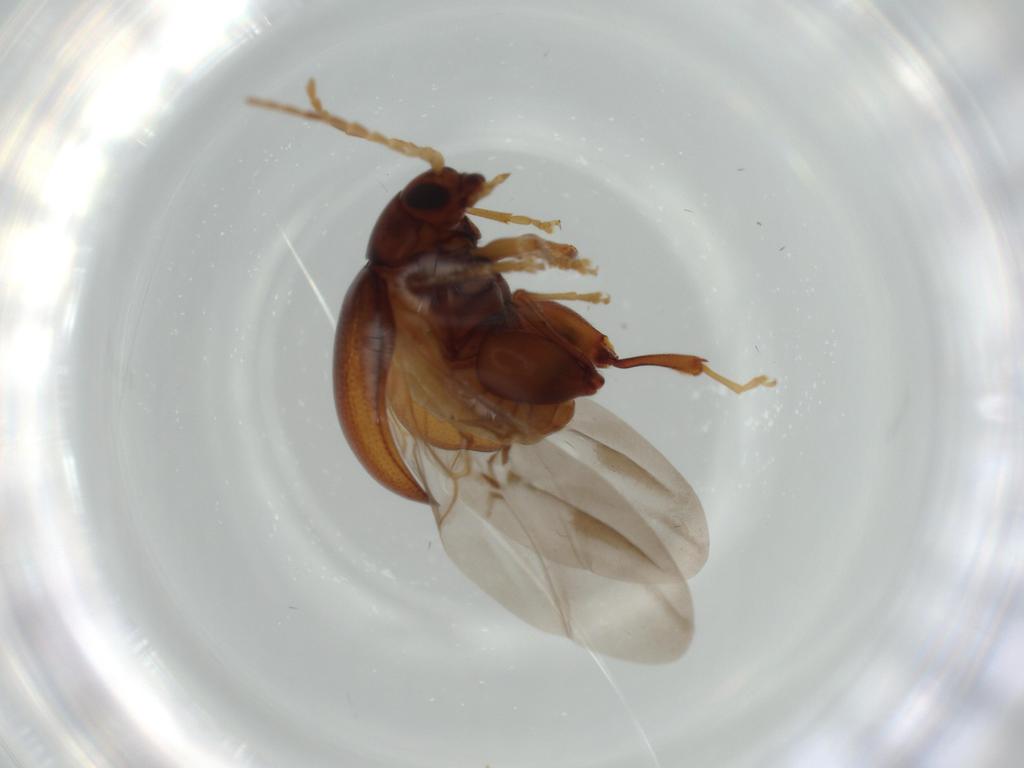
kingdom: Animalia
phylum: Arthropoda
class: Insecta
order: Coleoptera
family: Chrysomelidae
